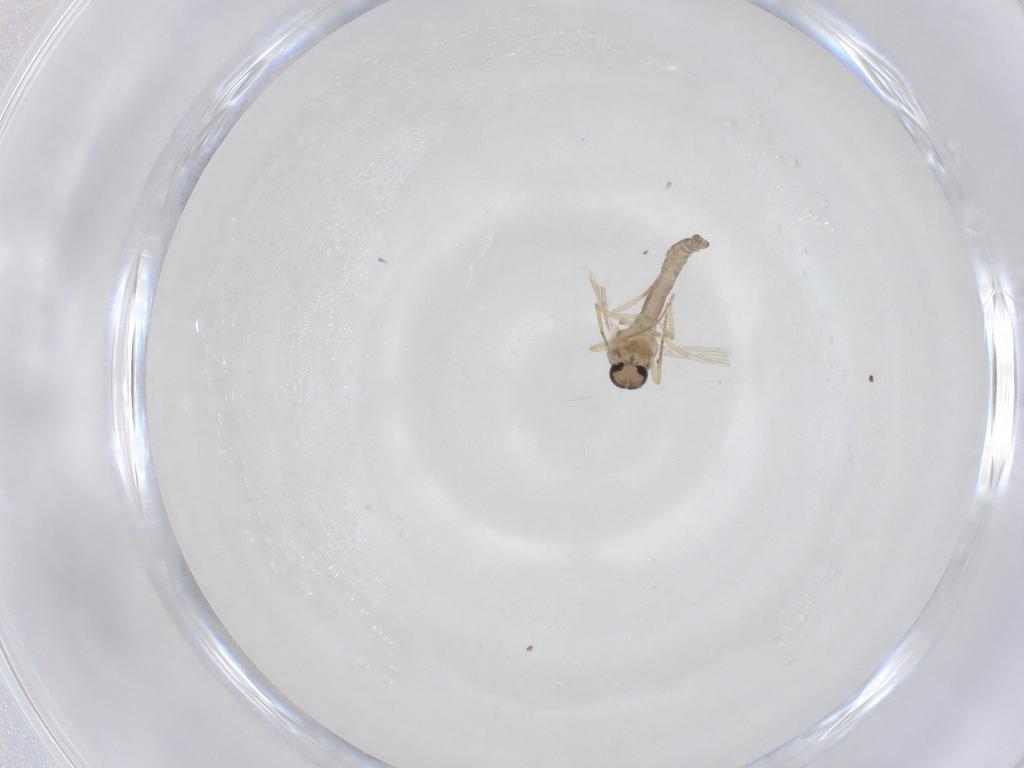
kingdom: Animalia
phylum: Arthropoda
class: Insecta
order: Diptera
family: Ceratopogonidae
